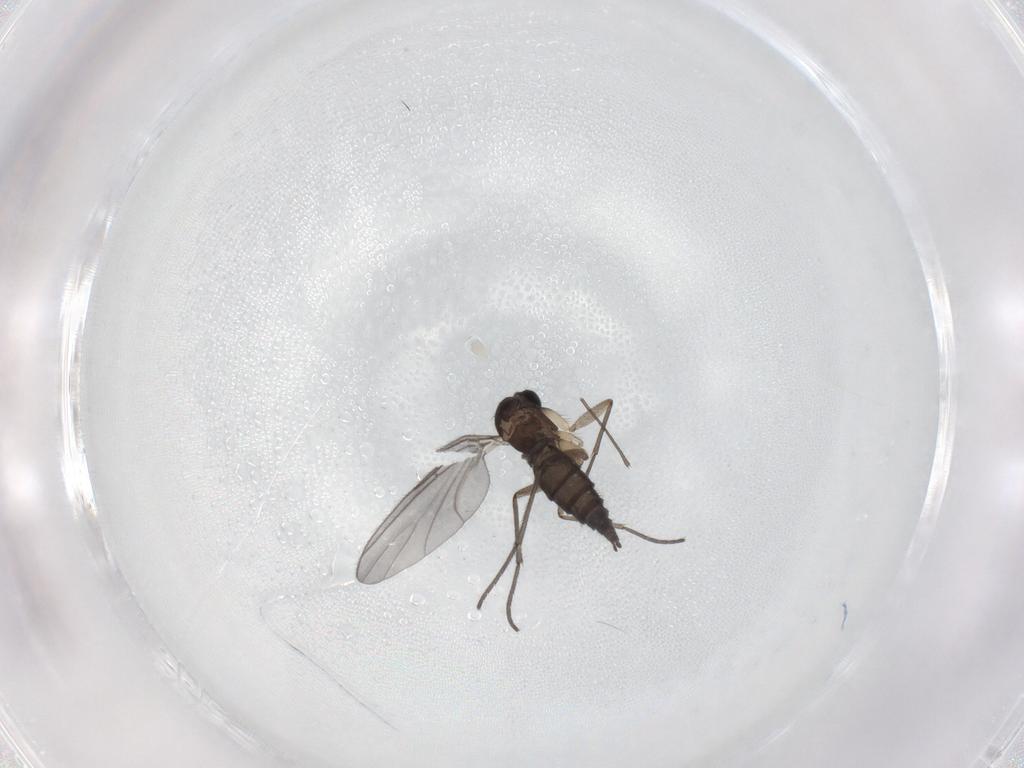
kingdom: Animalia
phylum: Arthropoda
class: Insecta
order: Diptera
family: Sciaridae
